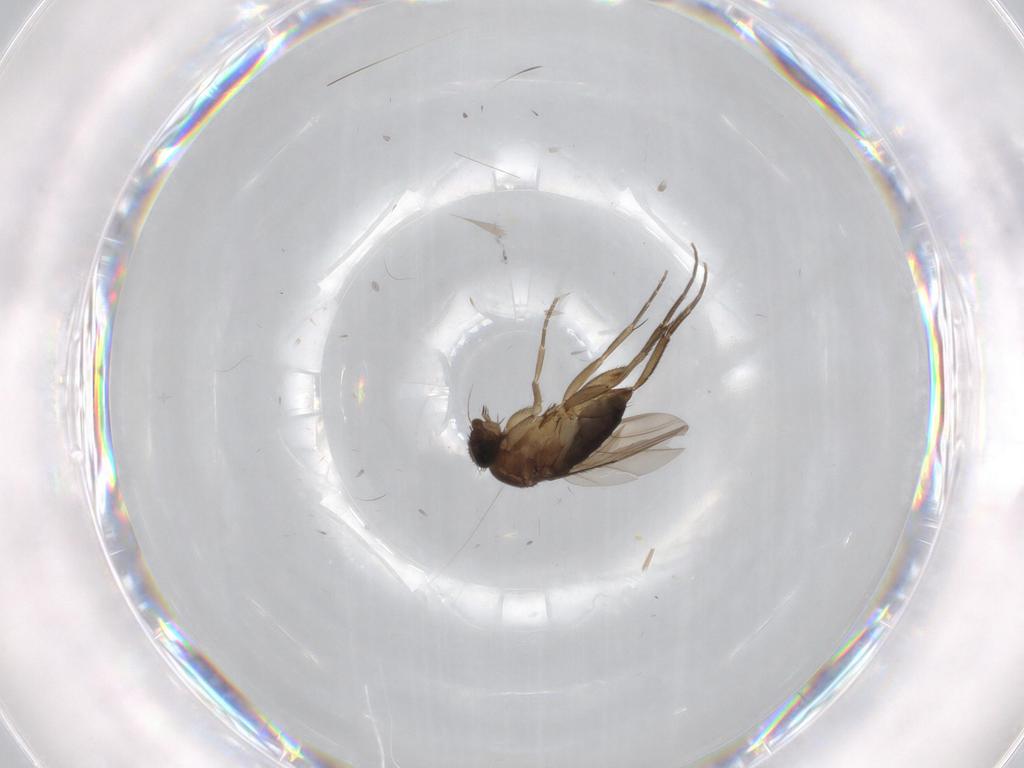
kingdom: Animalia
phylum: Arthropoda
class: Insecta
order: Diptera
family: Phoridae
